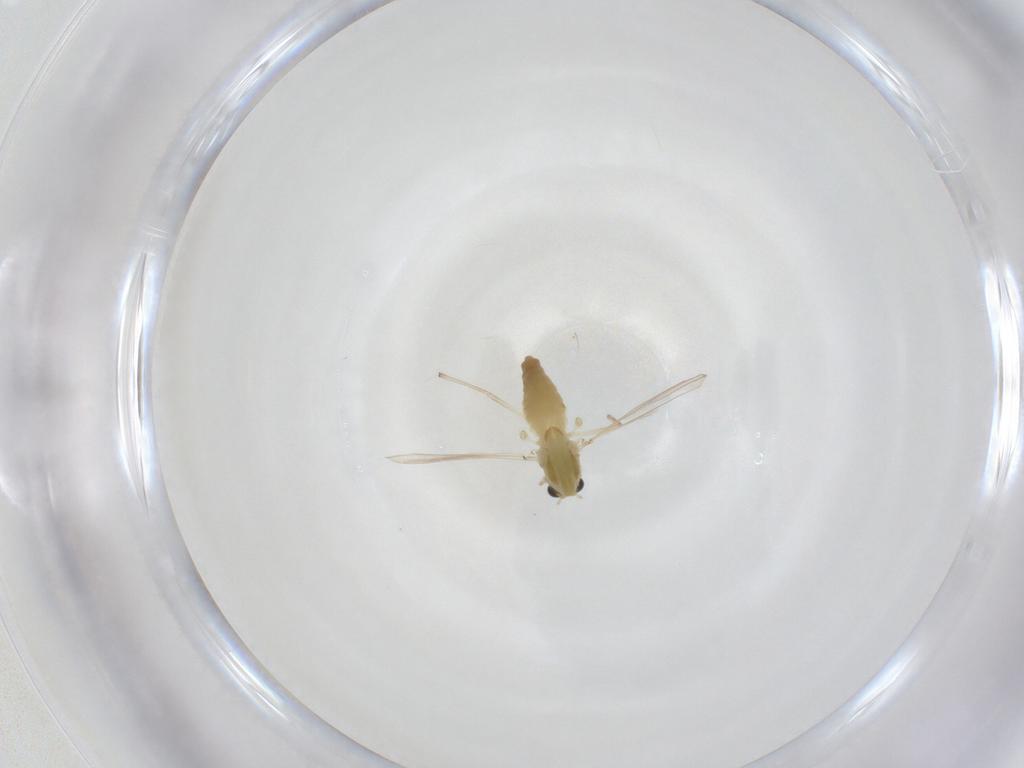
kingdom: Animalia
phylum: Arthropoda
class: Insecta
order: Diptera
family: Chironomidae
